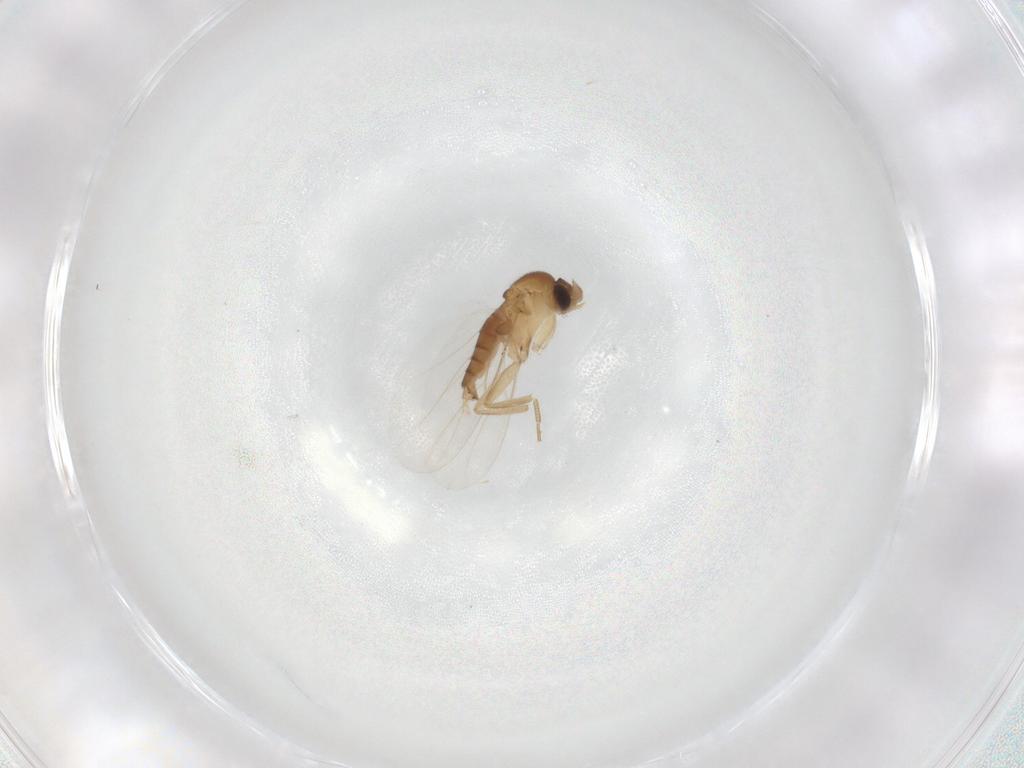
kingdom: Animalia
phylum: Arthropoda
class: Insecta
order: Diptera
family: Phoridae
